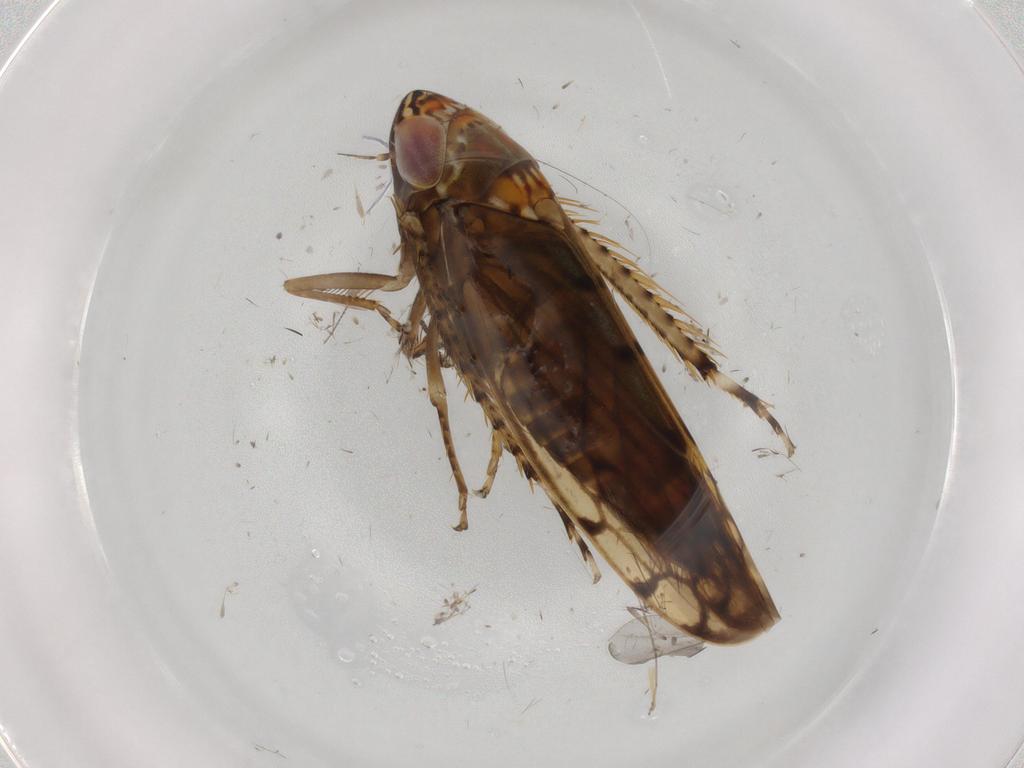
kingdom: Animalia
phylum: Arthropoda
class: Insecta
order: Hemiptera
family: Cicadellidae
